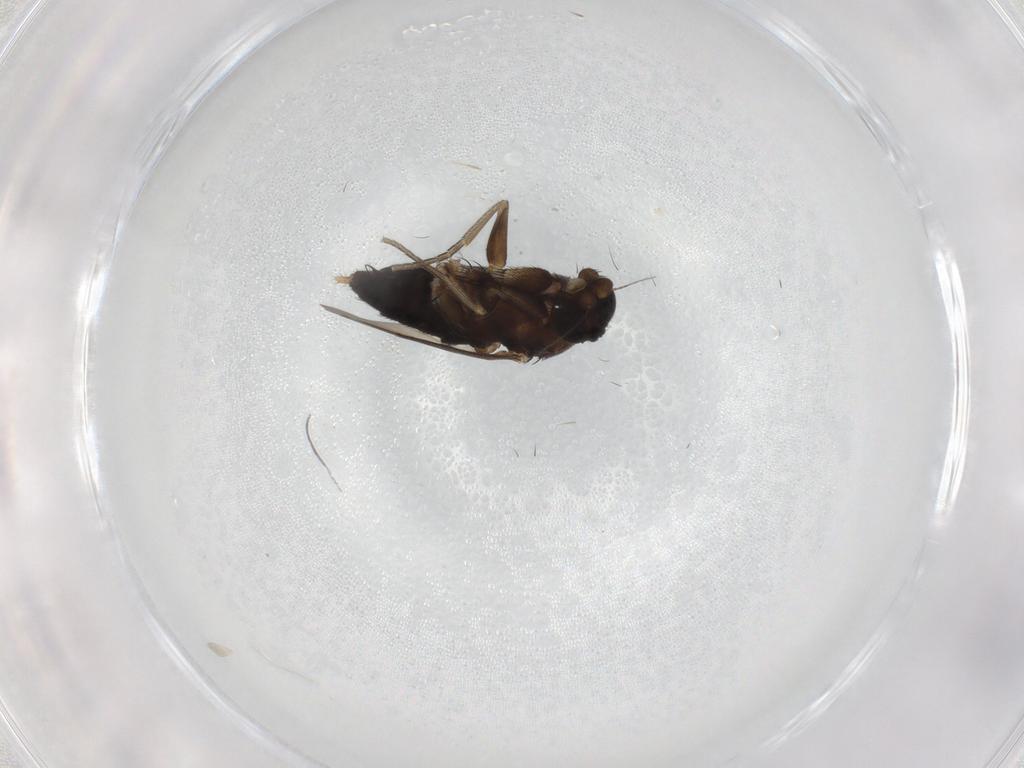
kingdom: Animalia
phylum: Arthropoda
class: Insecta
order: Diptera
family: Phoridae
